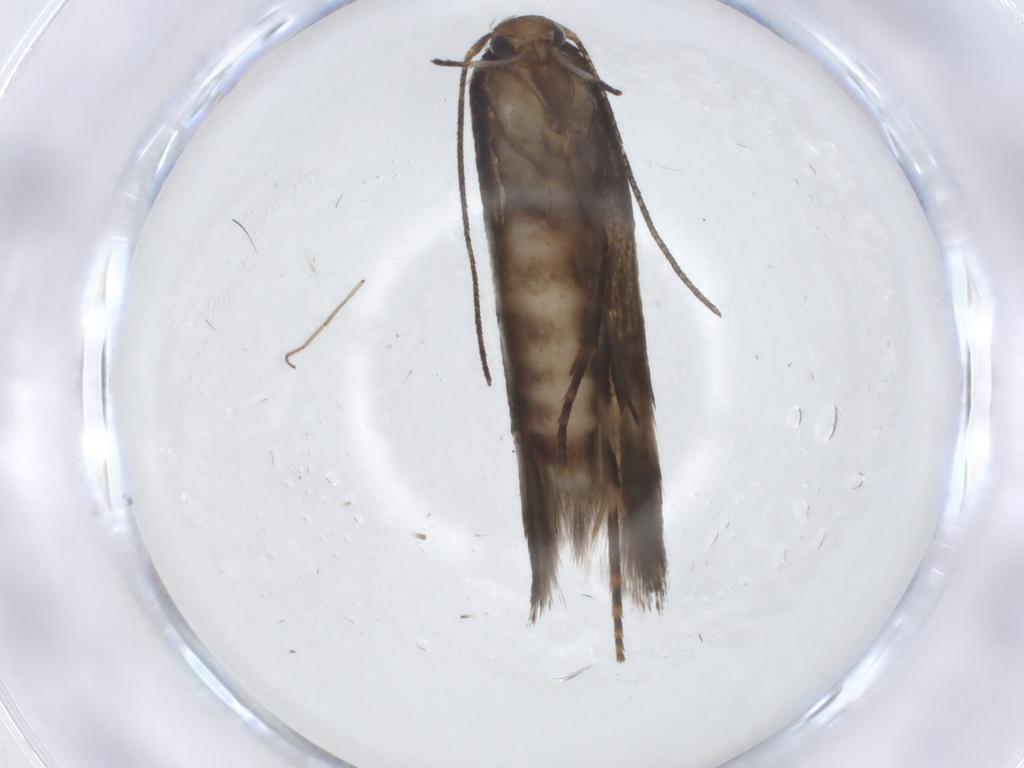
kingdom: Animalia
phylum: Arthropoda
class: Insecta
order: Lepidoptera
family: Momphidae
